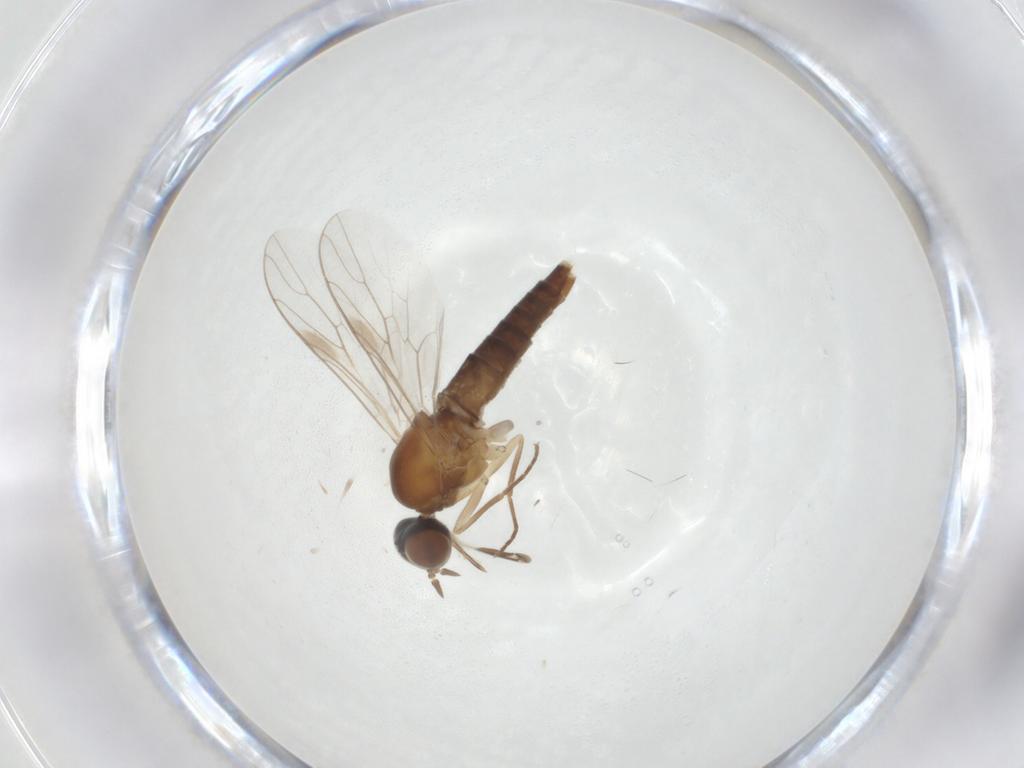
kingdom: Animalia
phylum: Arthropoda
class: Insecta
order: Diptera
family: Scenopinidae
